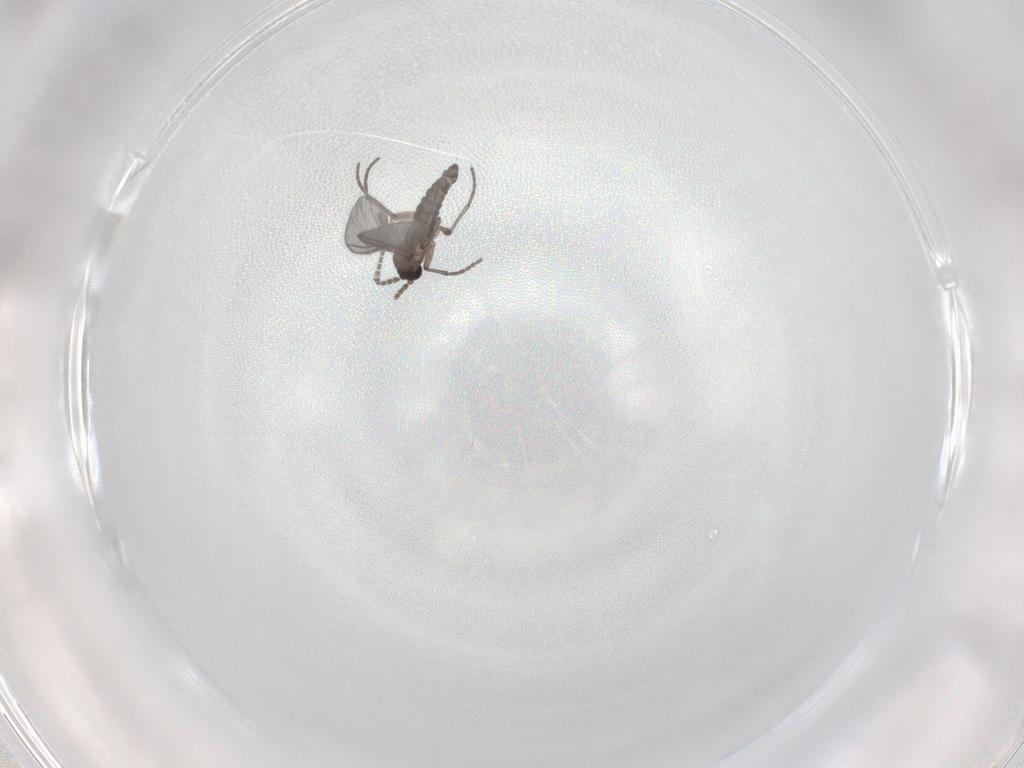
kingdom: Animalia
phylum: Arthropoda
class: Insecta
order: Diptera
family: Sciaridae
